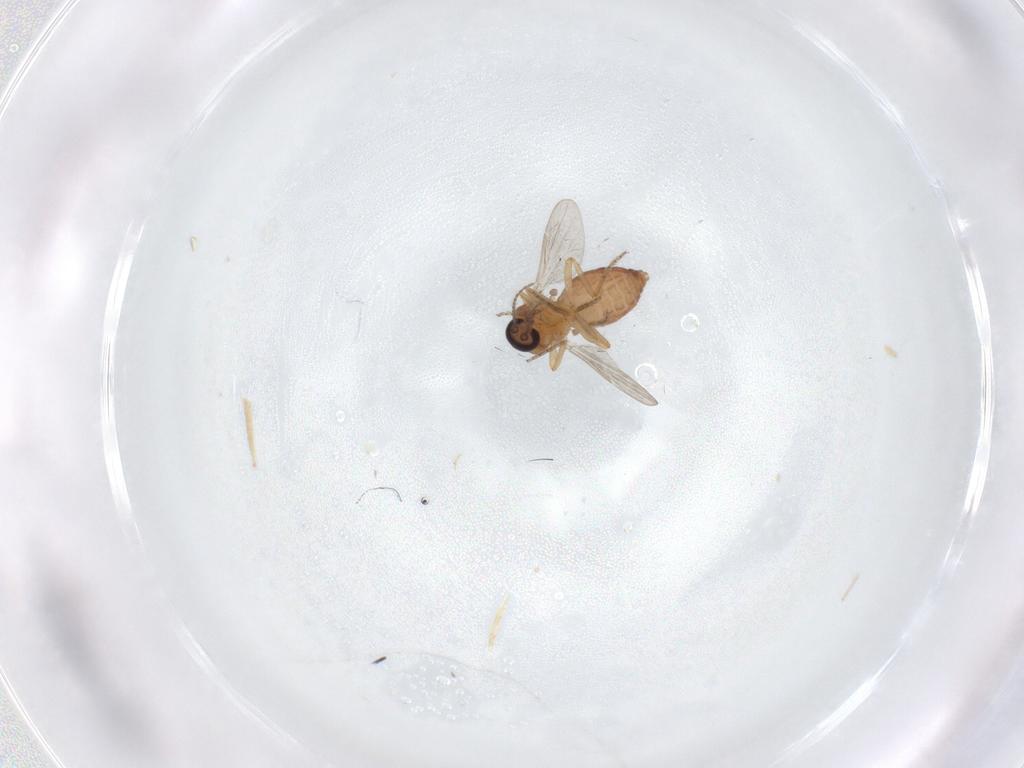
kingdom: Animalia
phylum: Arthropoda
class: Insecta
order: Diptera
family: Ceratopogonidae
